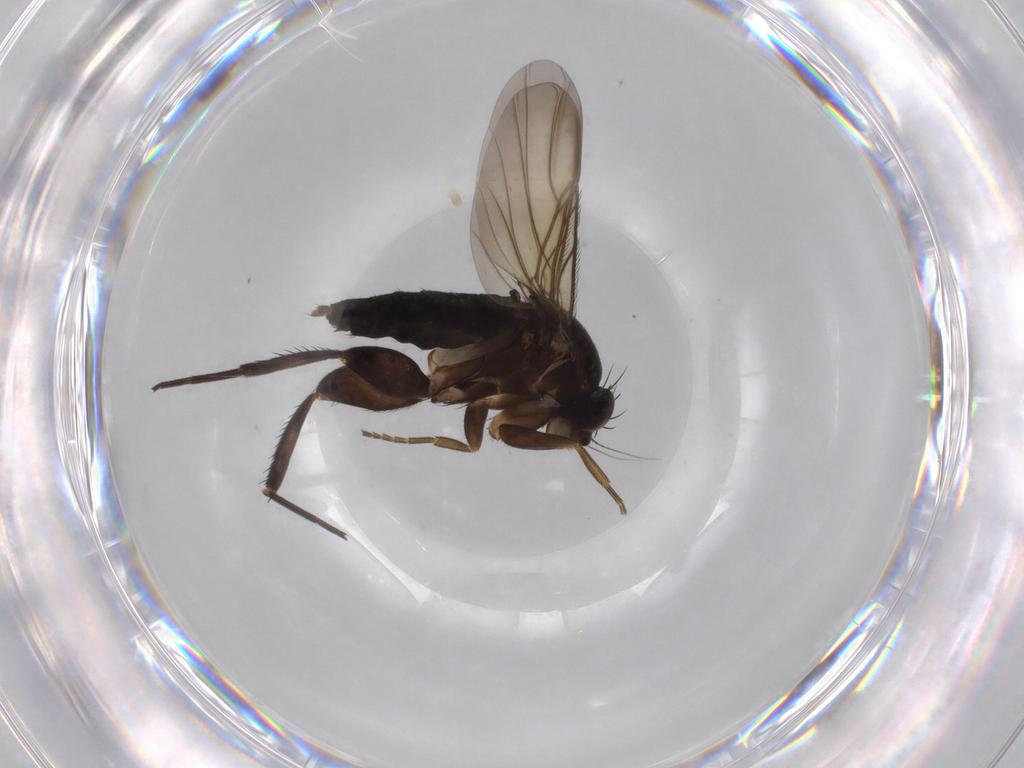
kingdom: Animalia
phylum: Arthropoda
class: Insecta
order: Diptera
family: Phoridae
